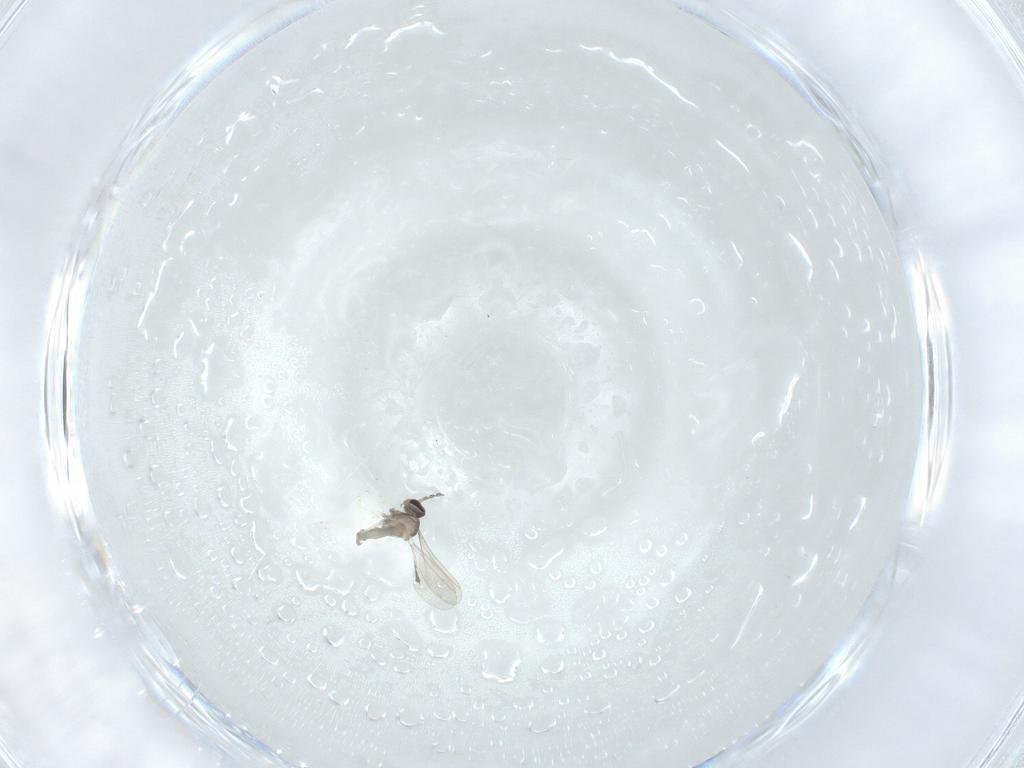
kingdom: Animalia
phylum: Arthropoda
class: Insecta
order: Diptera
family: Cecidomyiidae
